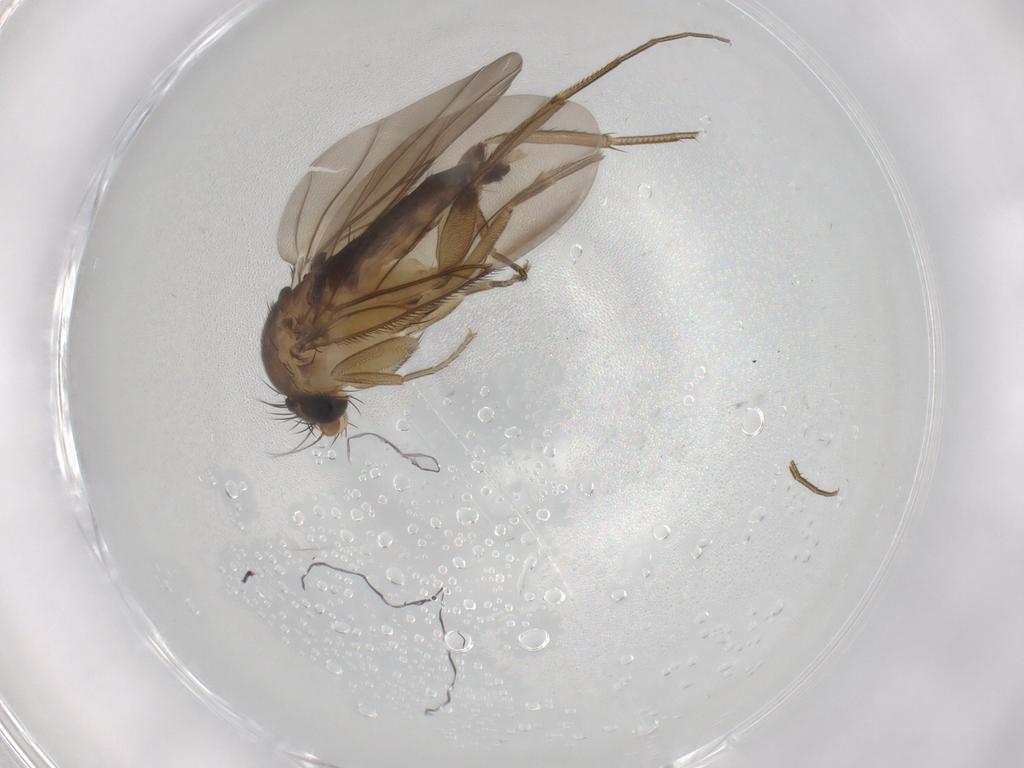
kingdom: Animalia
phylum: Arthropoda
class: Insecta
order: Diptera
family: Phoridae
